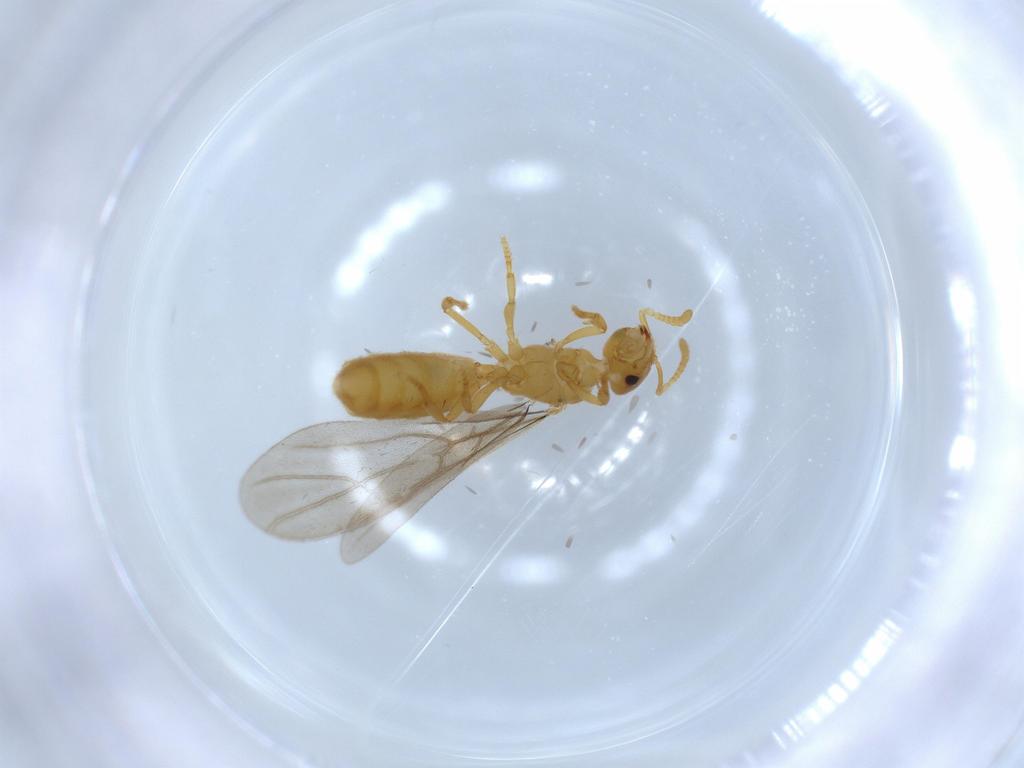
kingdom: Animalia
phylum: Arthropoda
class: Insecta
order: Hymenoptera
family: Formicidae
